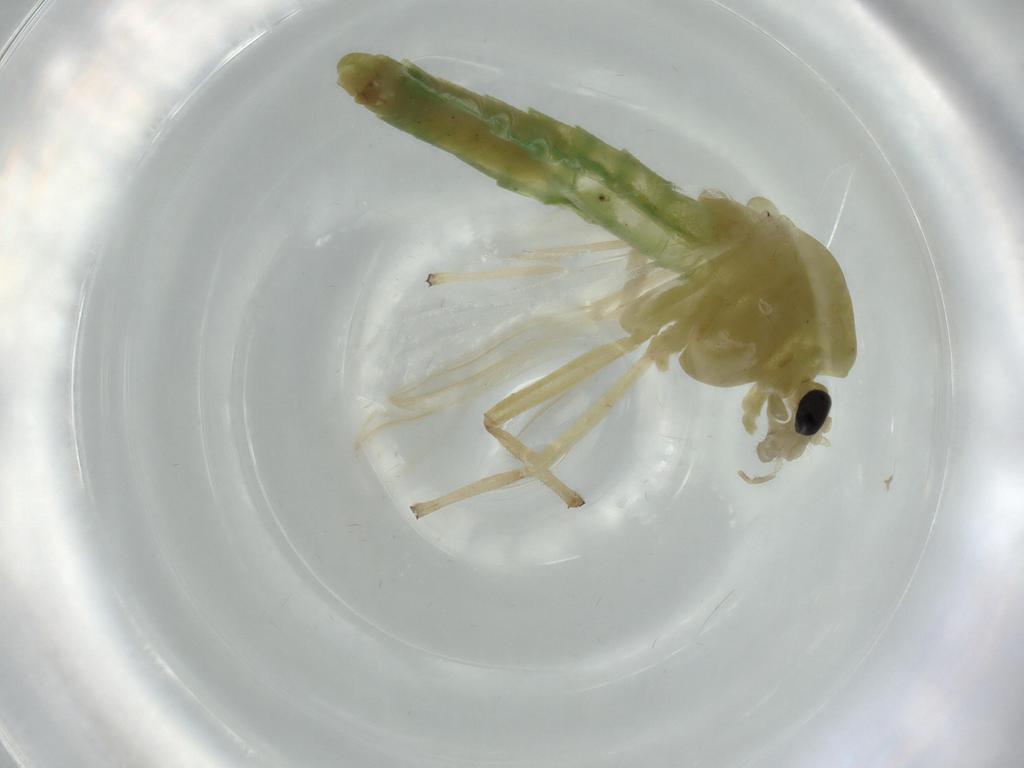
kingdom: Animalia
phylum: Arthropoda
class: Insecta
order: Diptera
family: Chironomidae
